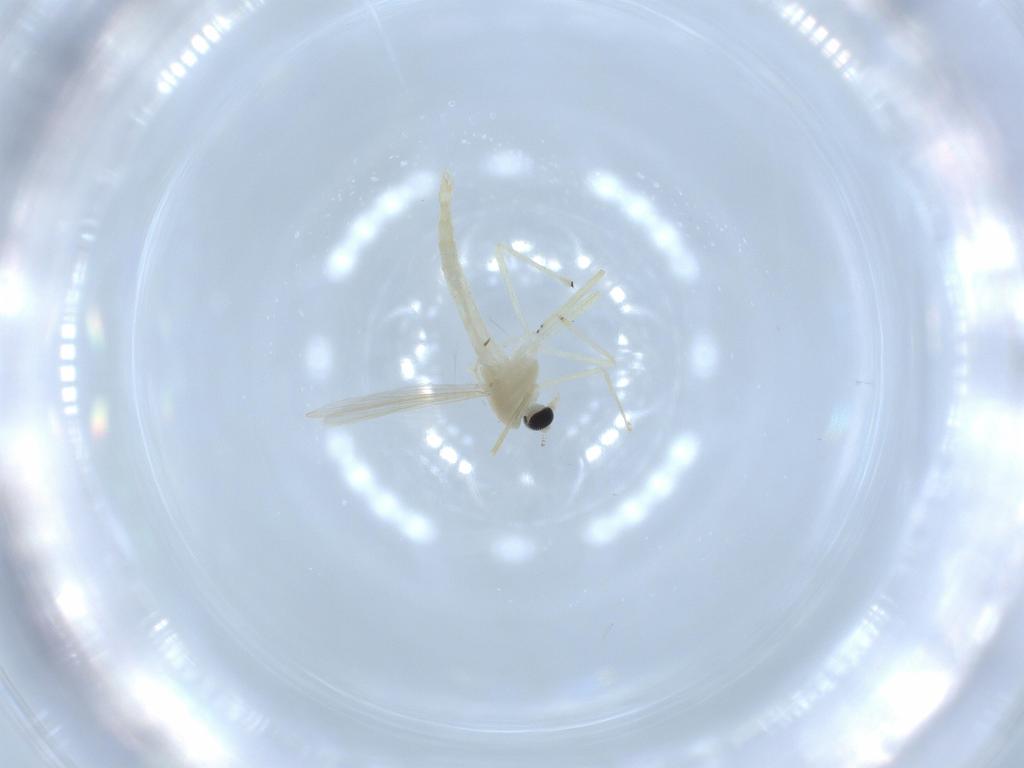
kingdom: Animalia
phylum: Arthropoda
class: Insecta
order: Diptera
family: Chironomidae
